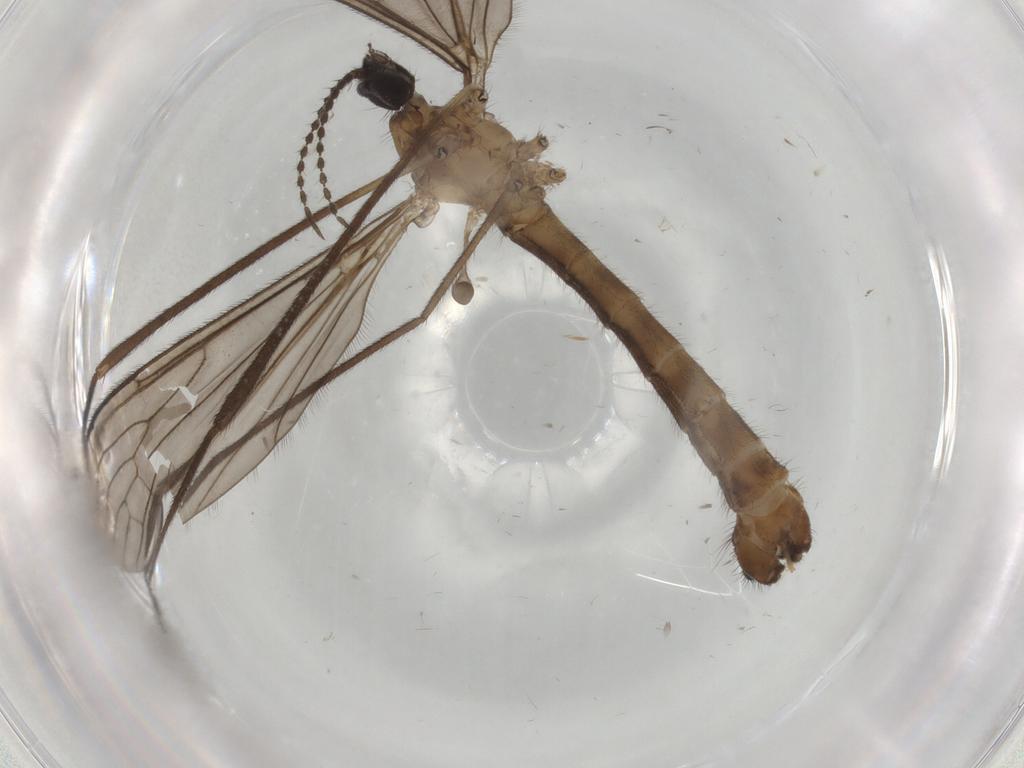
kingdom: Animalia
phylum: Arthropoda
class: Insecta
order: Diptera
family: Limoniidae
